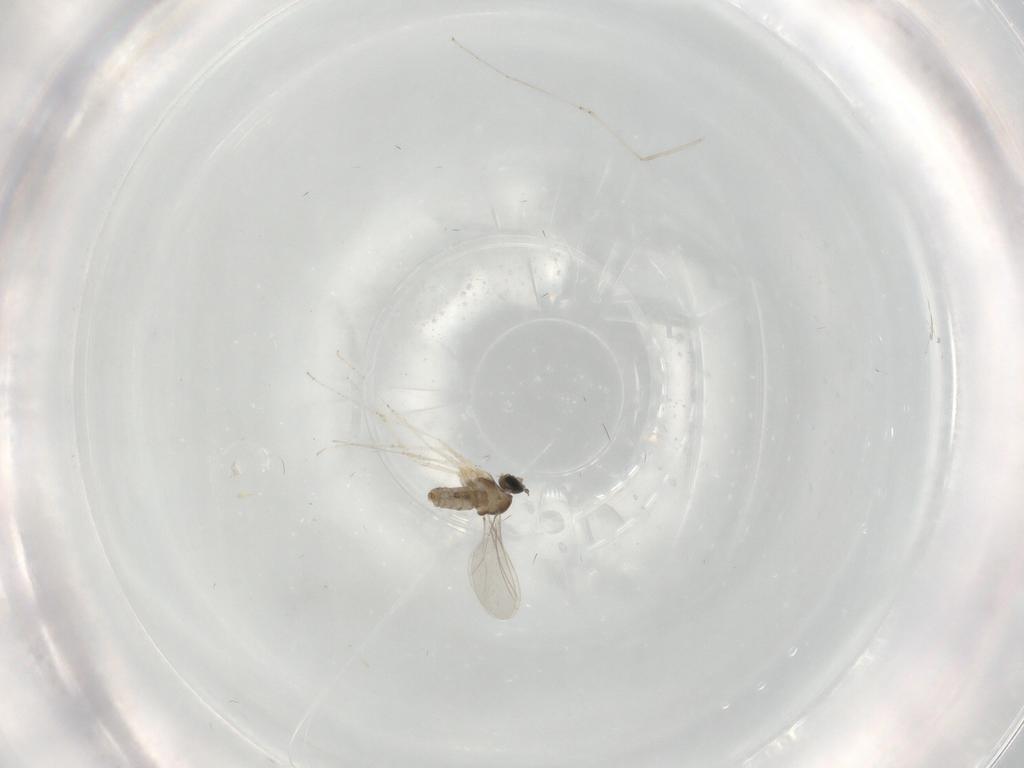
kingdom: Animalia
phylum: Arthropoda
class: Insecta
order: Diptera
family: Cecidomyiidae
